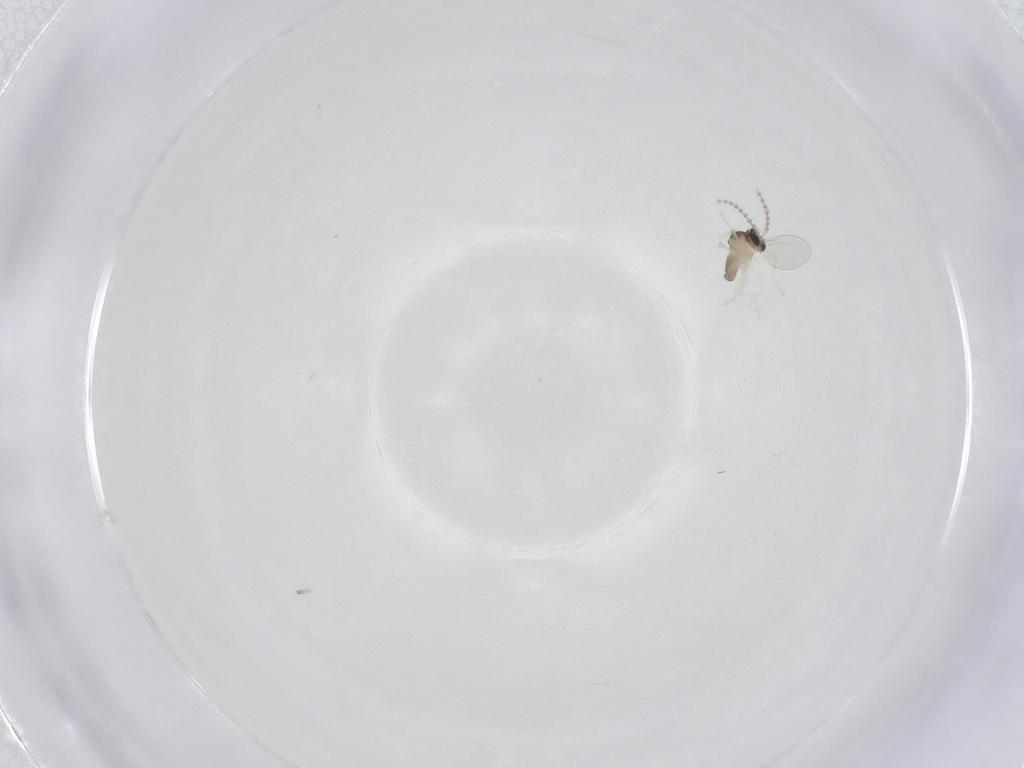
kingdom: Animalia
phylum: Arthropoda
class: Insecta
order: Diptera
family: Cecidomyiidae
